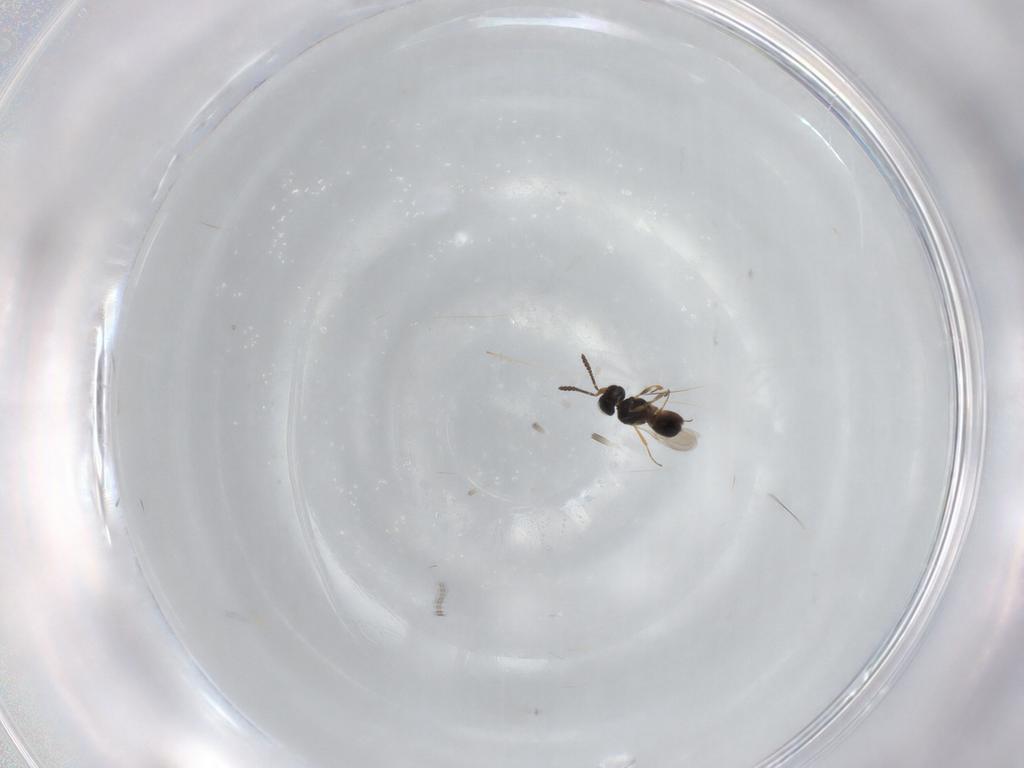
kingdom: Animalia
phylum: Arthropoda
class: Insecta
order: Hymenoptera
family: Scelionidae
